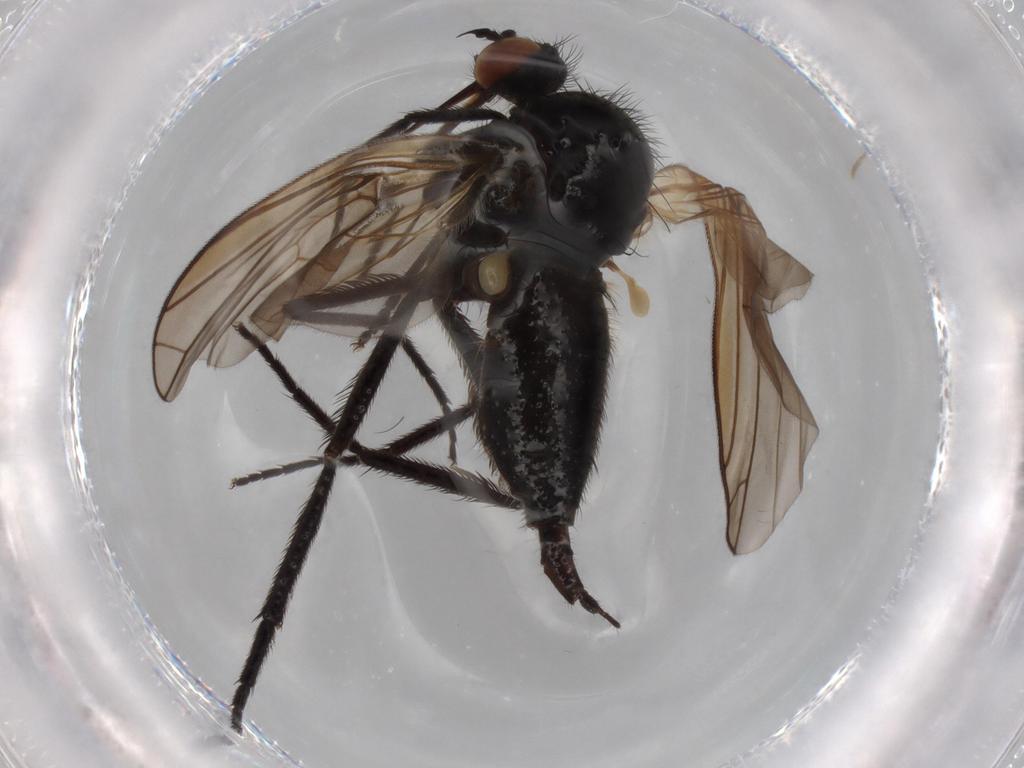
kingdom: Animalia
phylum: Arthropoda
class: Insecta
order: Diptera
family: Empididae
